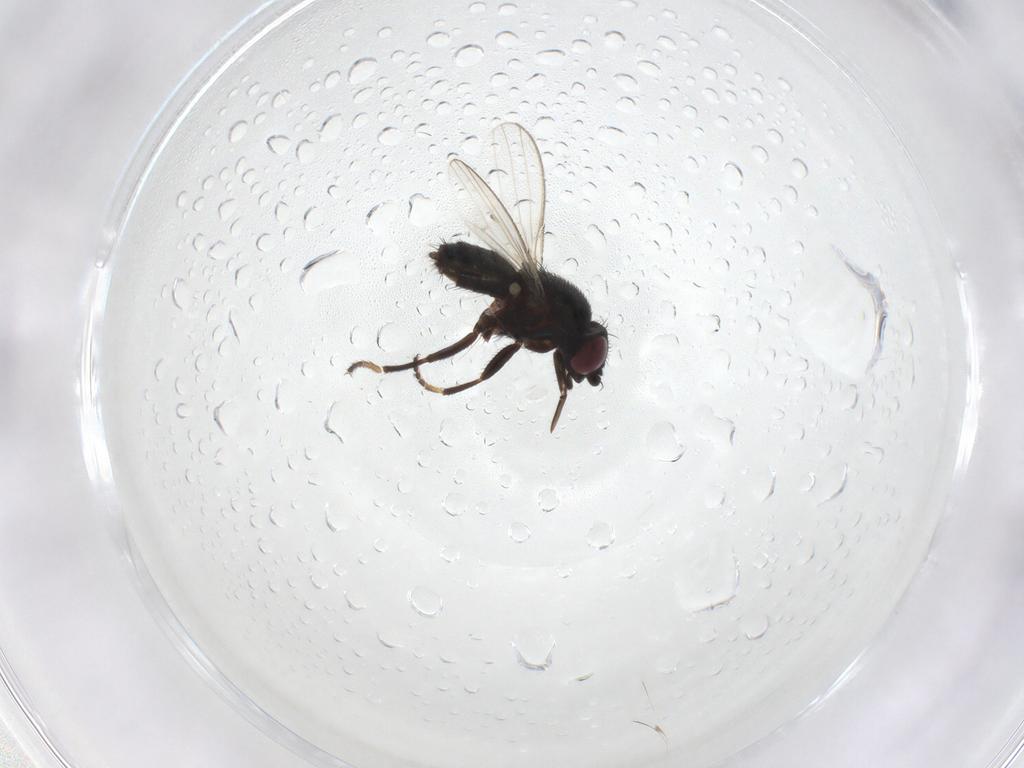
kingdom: Animalia
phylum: Arthropoda
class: Insecta
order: Diptera
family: Milichiidae
